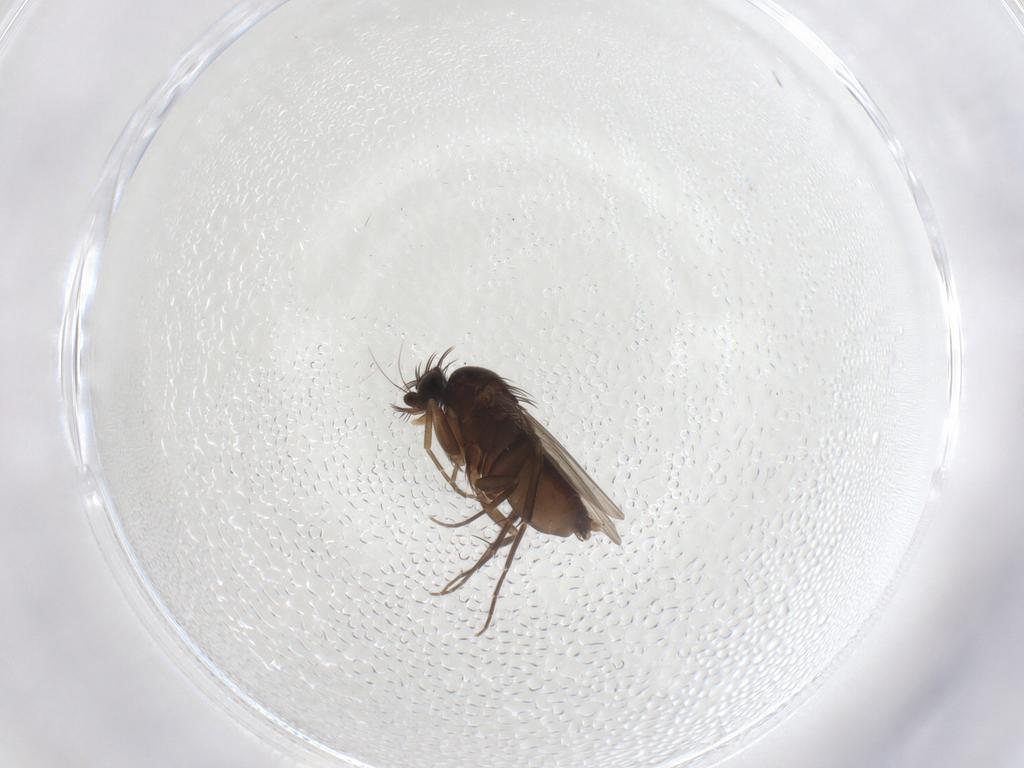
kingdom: Animalia
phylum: Arthropoda
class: Insecta
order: Diptera
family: Phoridae
